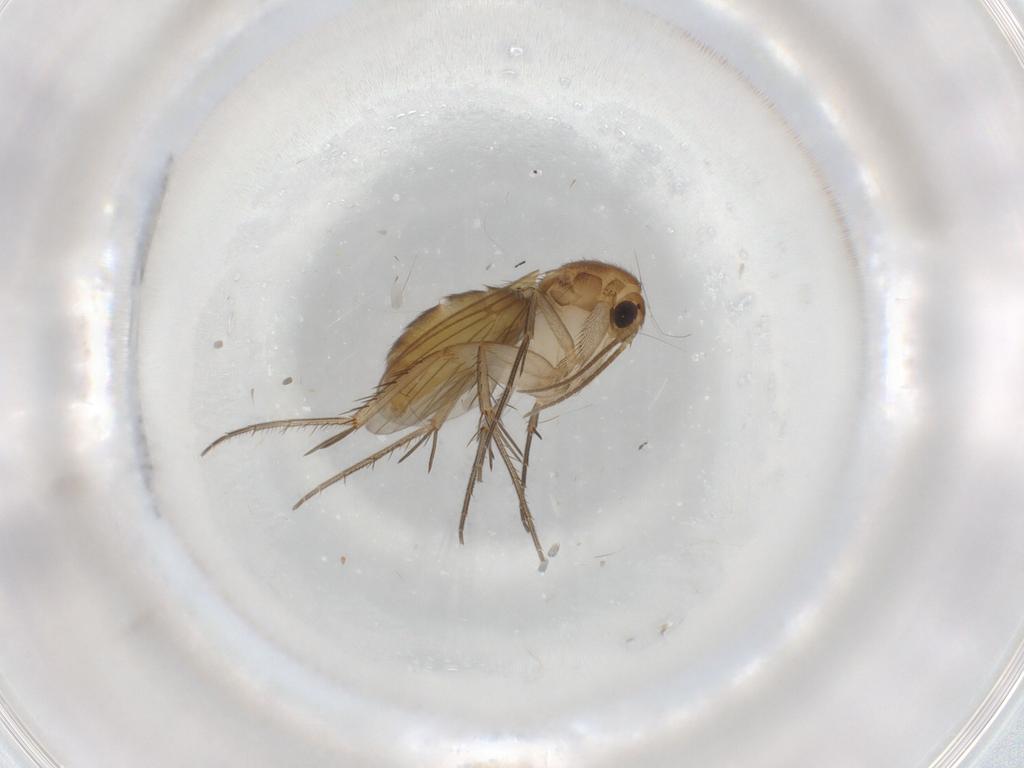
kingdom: Animalia
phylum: Arthropoda
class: Insecta
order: Diptera
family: Mycetophilidae
